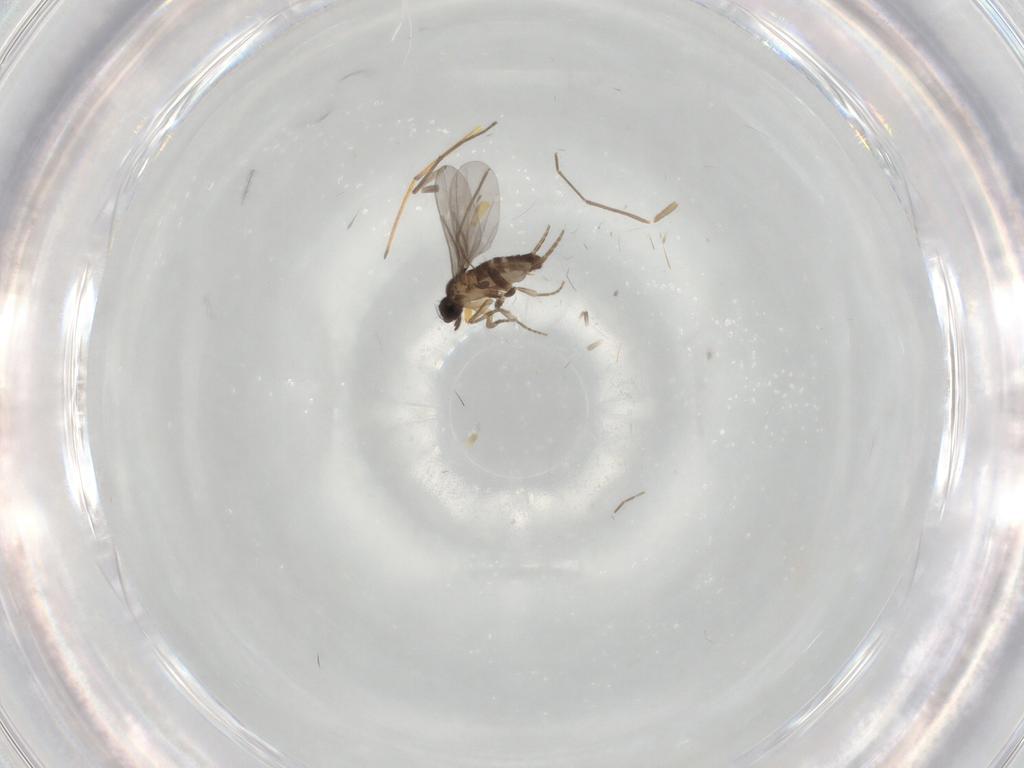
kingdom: Animalia
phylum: Arthropoda
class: Insecta
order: Diptera
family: Chironomidae
